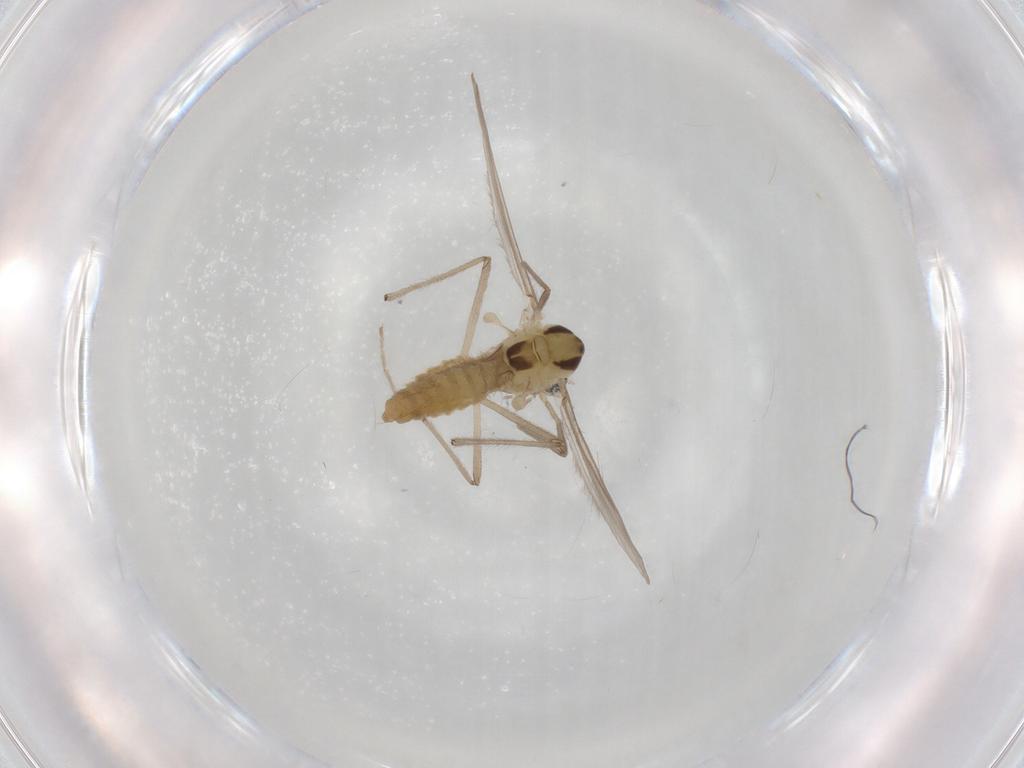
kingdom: Animalia
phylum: Arthropoda
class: Insecta
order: Diptera
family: Chironomidae
